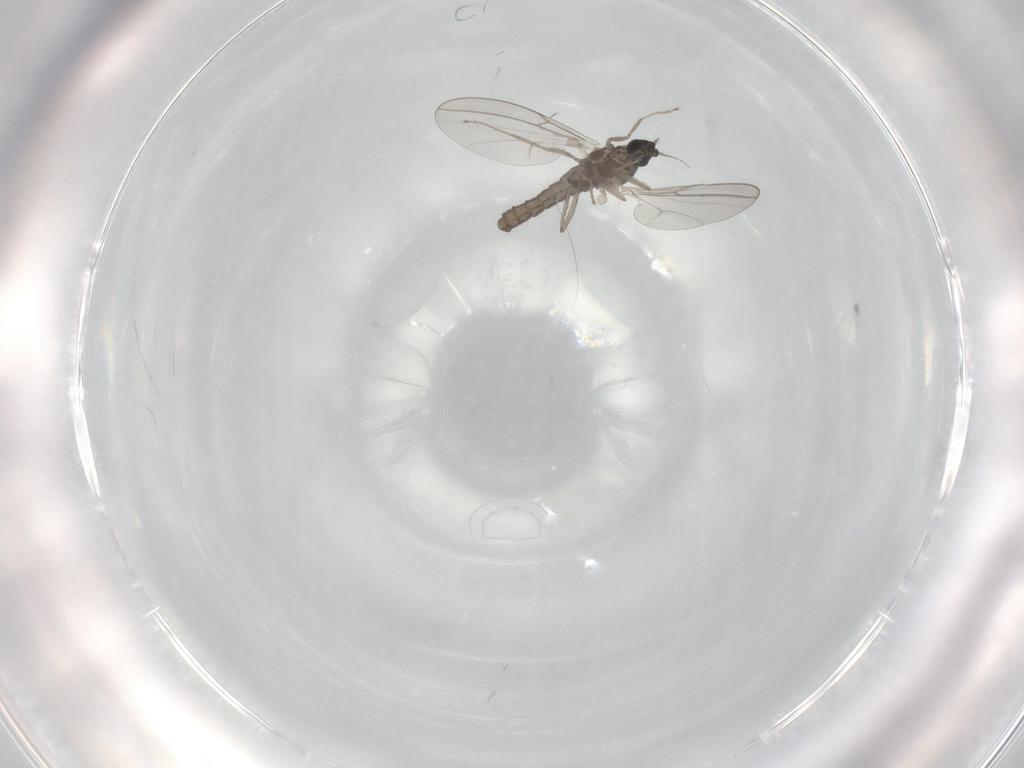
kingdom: Animalia
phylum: Arthropoda
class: Insecta
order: Diptera
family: Cecidomyiidae
